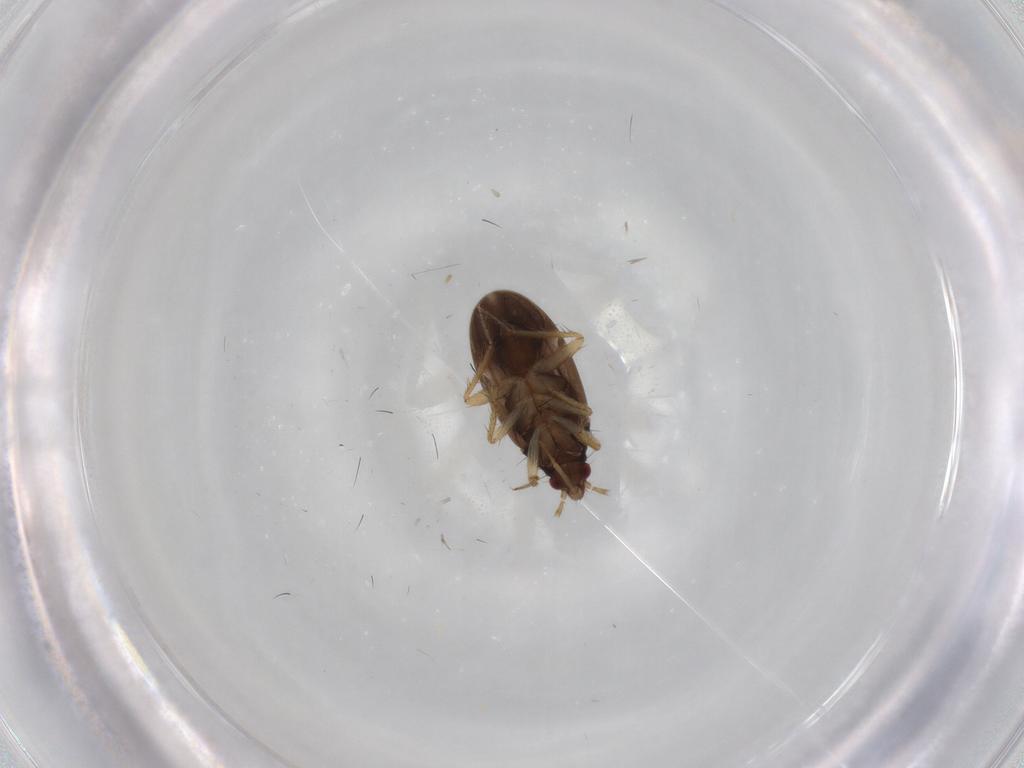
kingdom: Animalia
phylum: Arthropoda
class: Insecta
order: Hemiptera
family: Ceratocombidae
